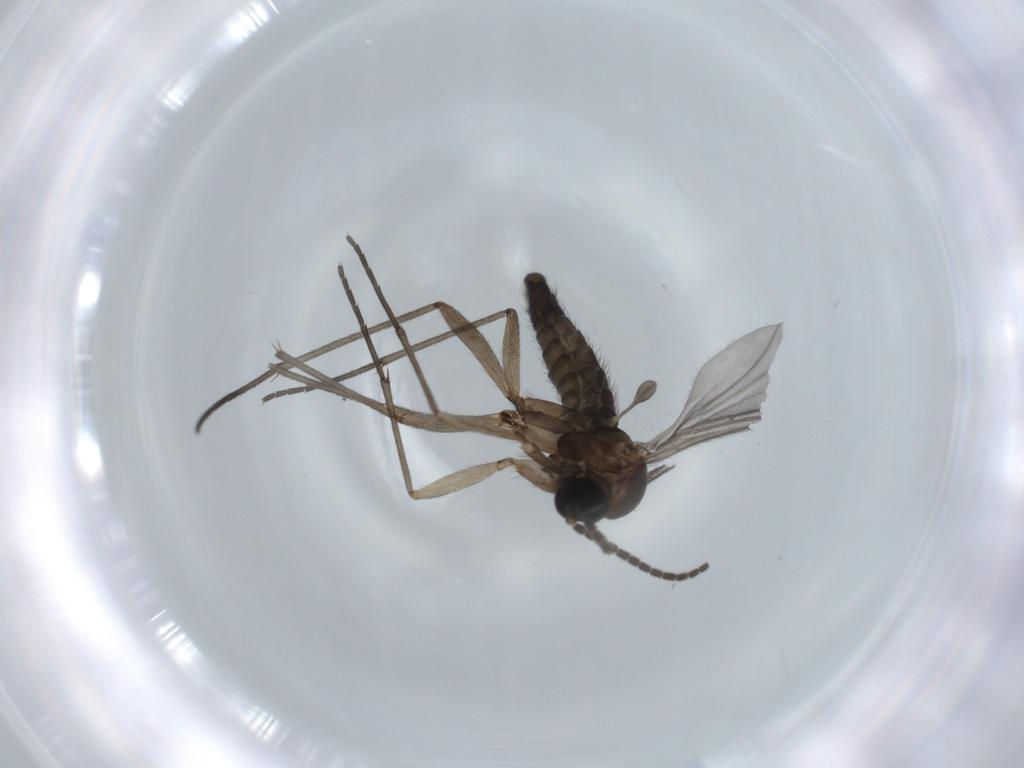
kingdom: Animalia
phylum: Arthropoda
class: Insecta
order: Diptera
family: Sciaridae
